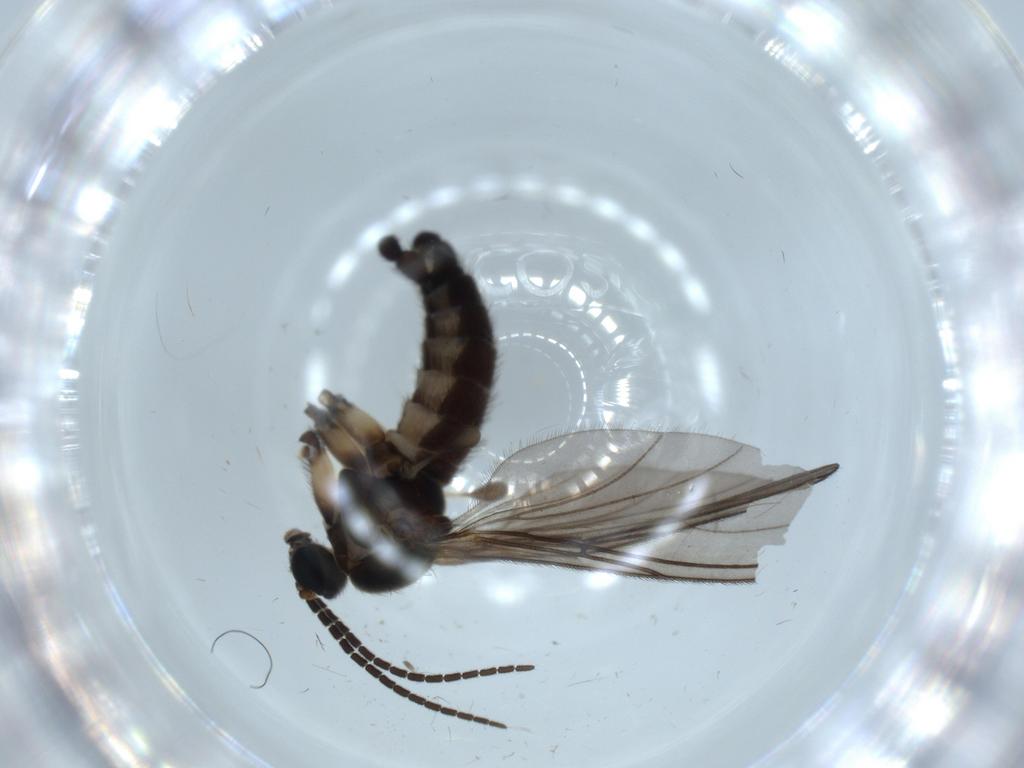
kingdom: Animalia
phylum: Arthropoda
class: Insecta
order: Diptera
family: Sciaridae
